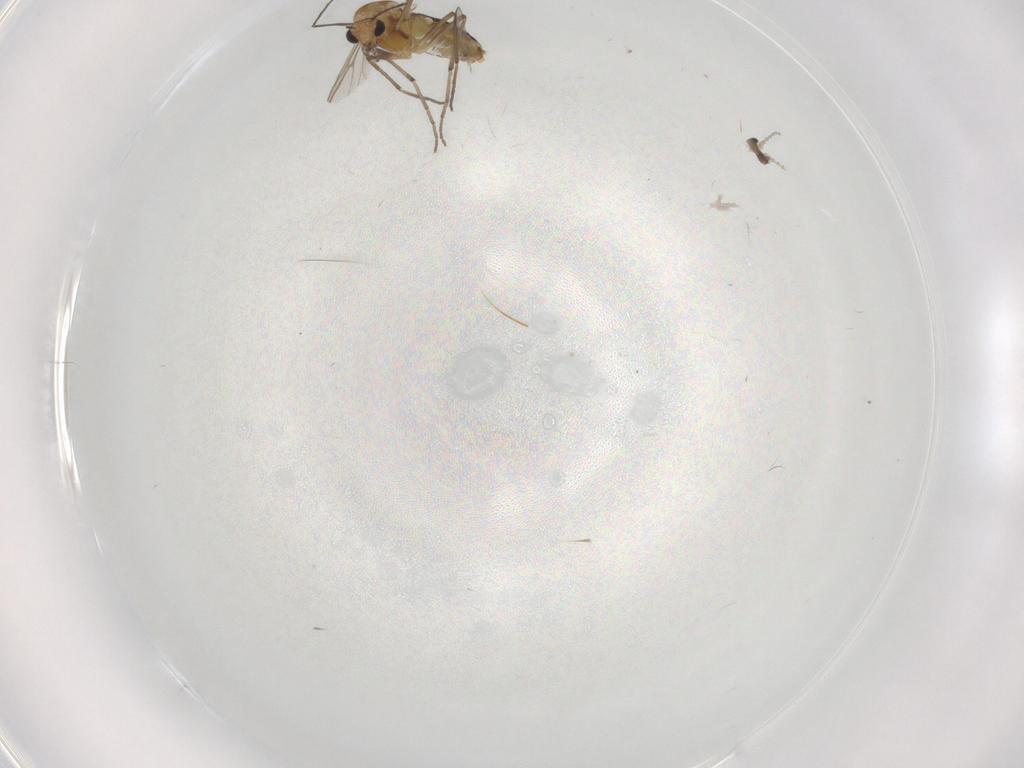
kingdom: Animalia
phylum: Arthropoda
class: Insecta
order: Diptera
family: Chironomidae
